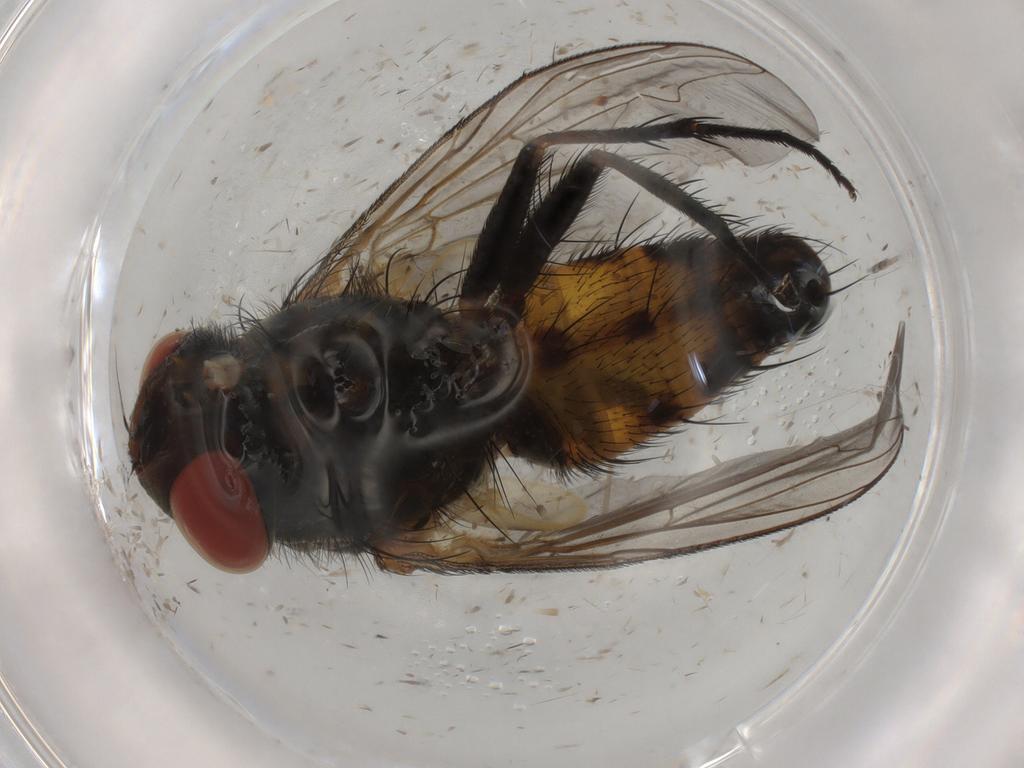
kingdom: Animalia
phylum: Arthropoda
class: Insecta
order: Diptera
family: Sarcophagidae
